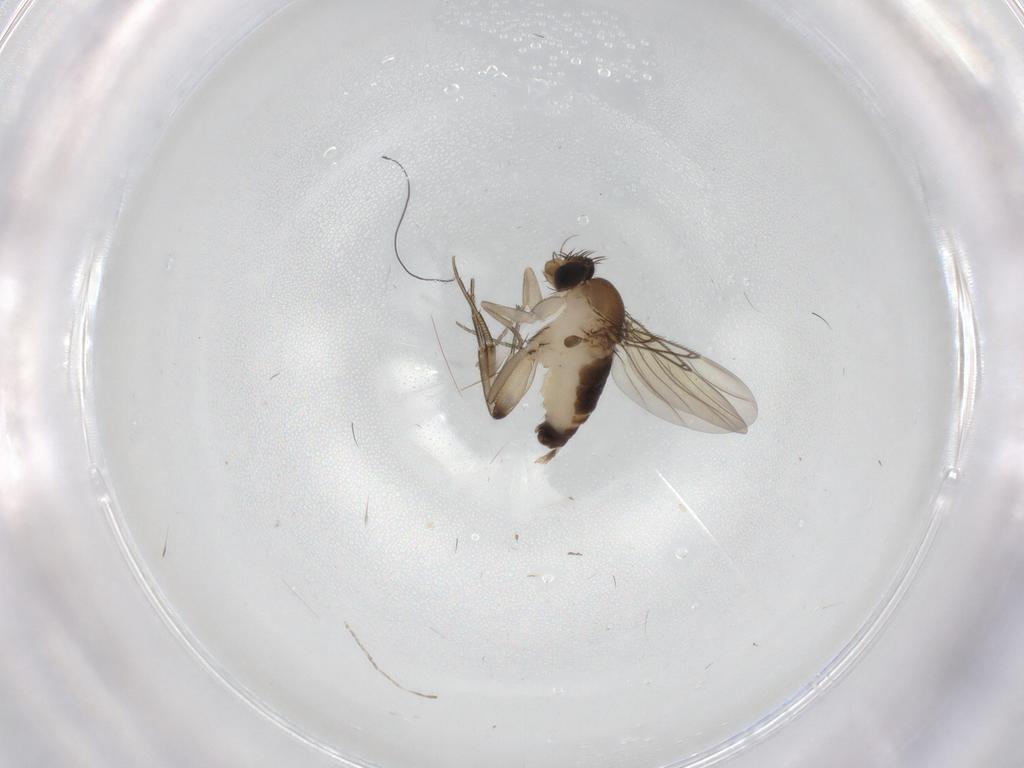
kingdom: Animalia
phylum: Arthropoda
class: Insecta
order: Diptera
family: Phoridae
